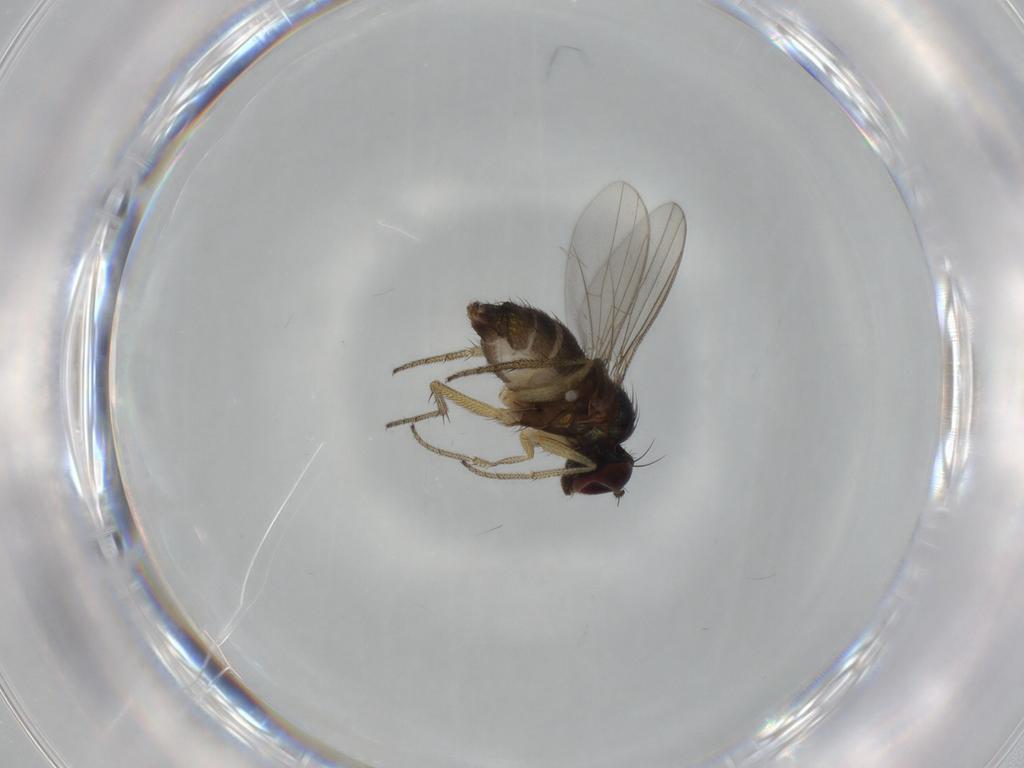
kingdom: Animalia
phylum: Arthropoda
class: Insecta
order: Diptera
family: Dolichopodidae
